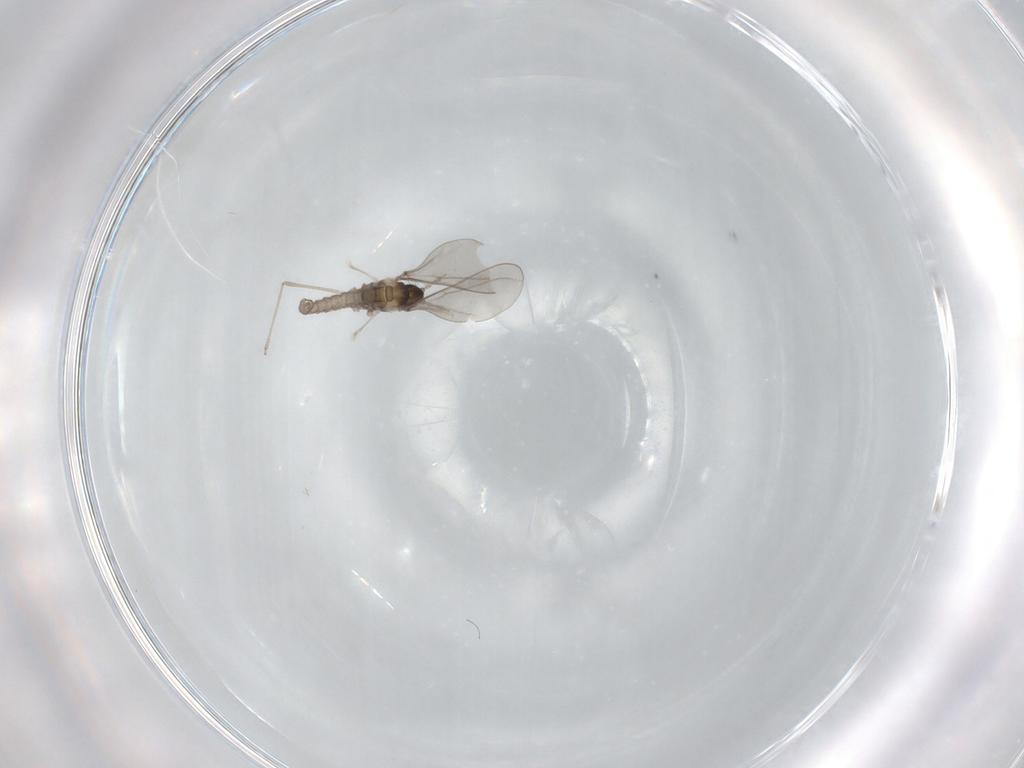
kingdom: Animalia
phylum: Arthropoda
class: Insecta
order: Diptera
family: Cecidomyiidae
